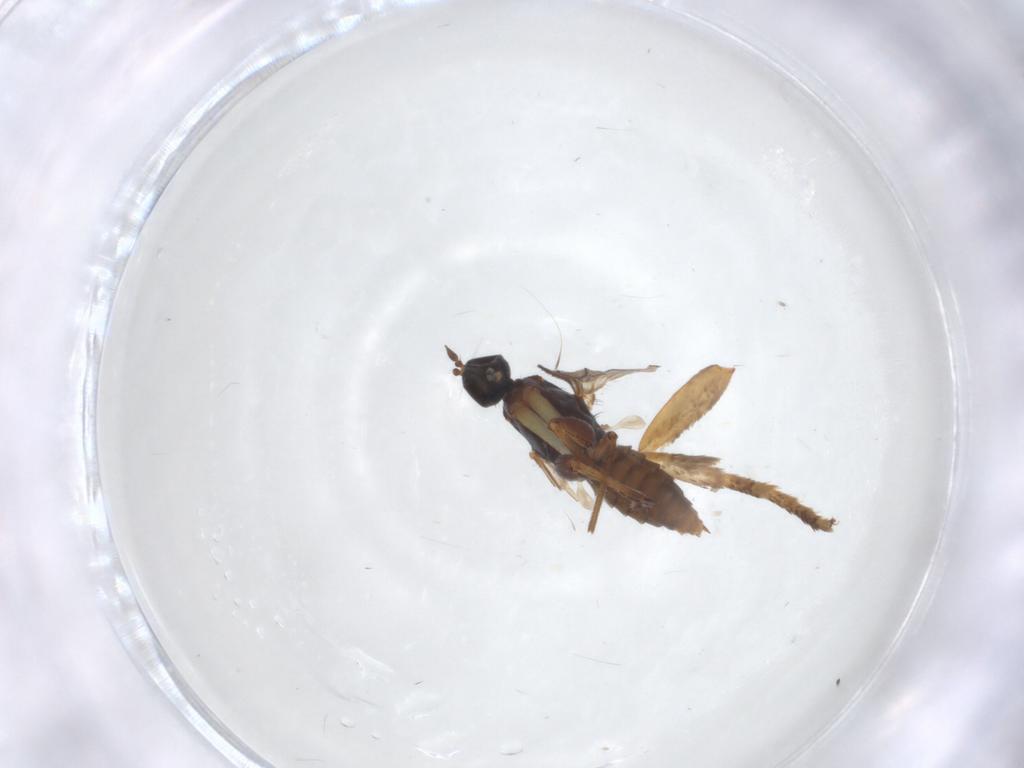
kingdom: Animalia
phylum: Arthropoda
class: Insecta
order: Diptera
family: Empididae
